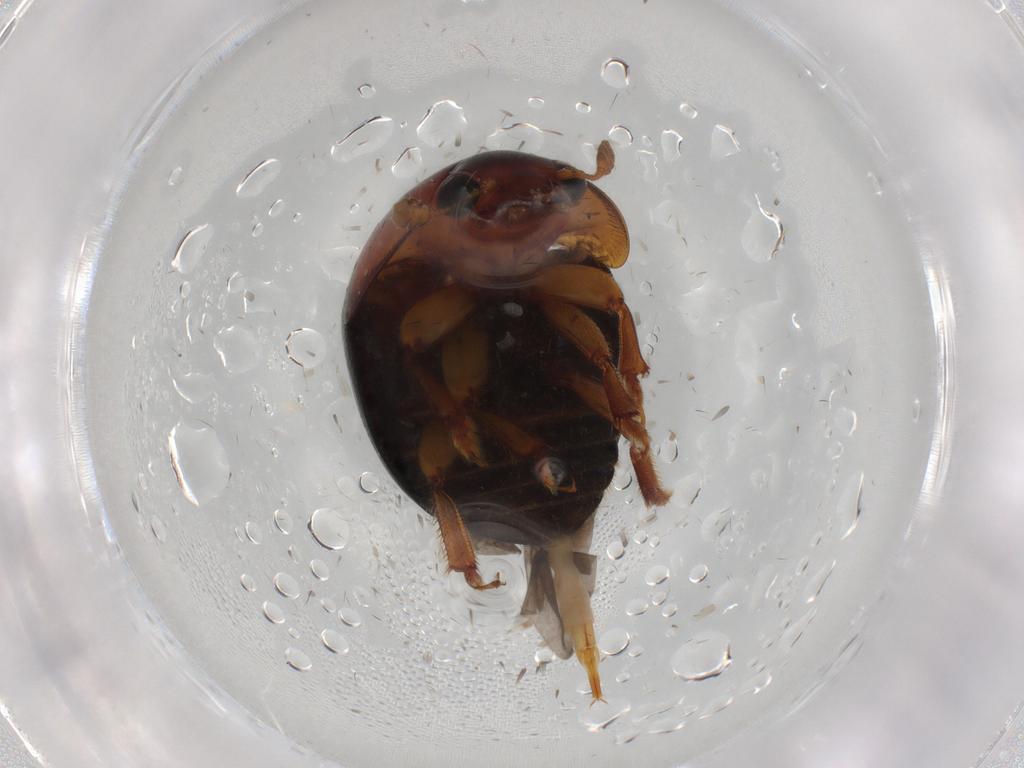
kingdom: Animalia
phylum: Arthropoda
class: Insecta
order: Coleoptera
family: Nitidulidae
